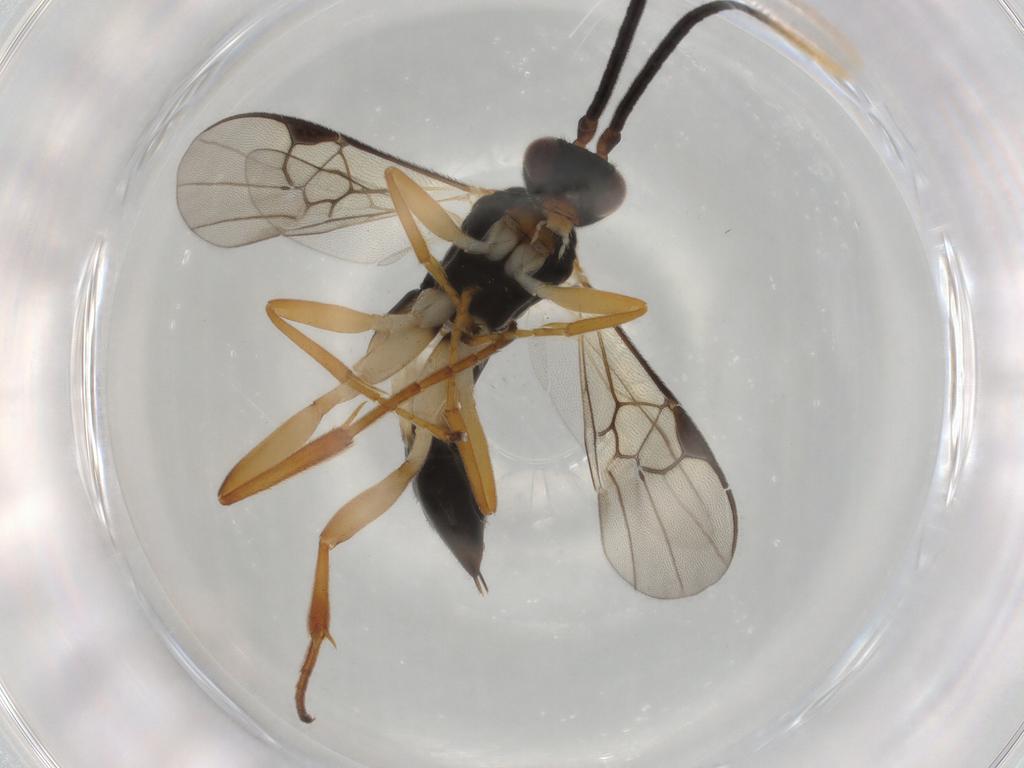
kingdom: Animalia
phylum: Arthropoda
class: Insecta
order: Hymenoptera
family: Braconidae
